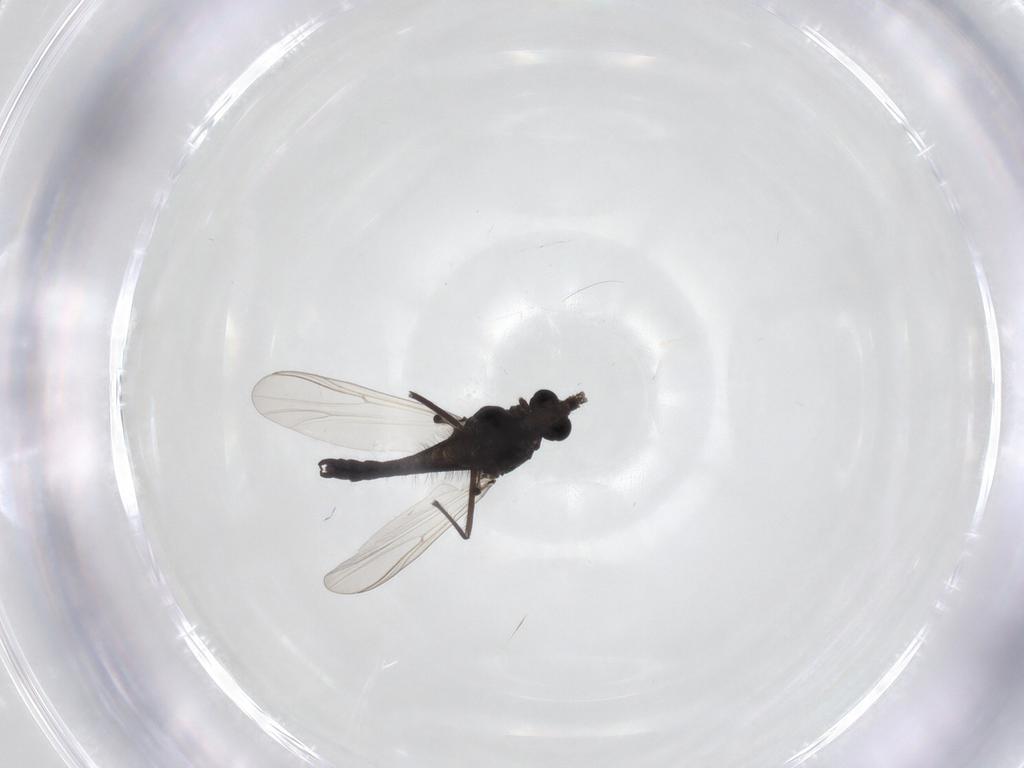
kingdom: Animalia
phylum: Arthropoda
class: Insecta
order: Diptera
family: Chironomidae
